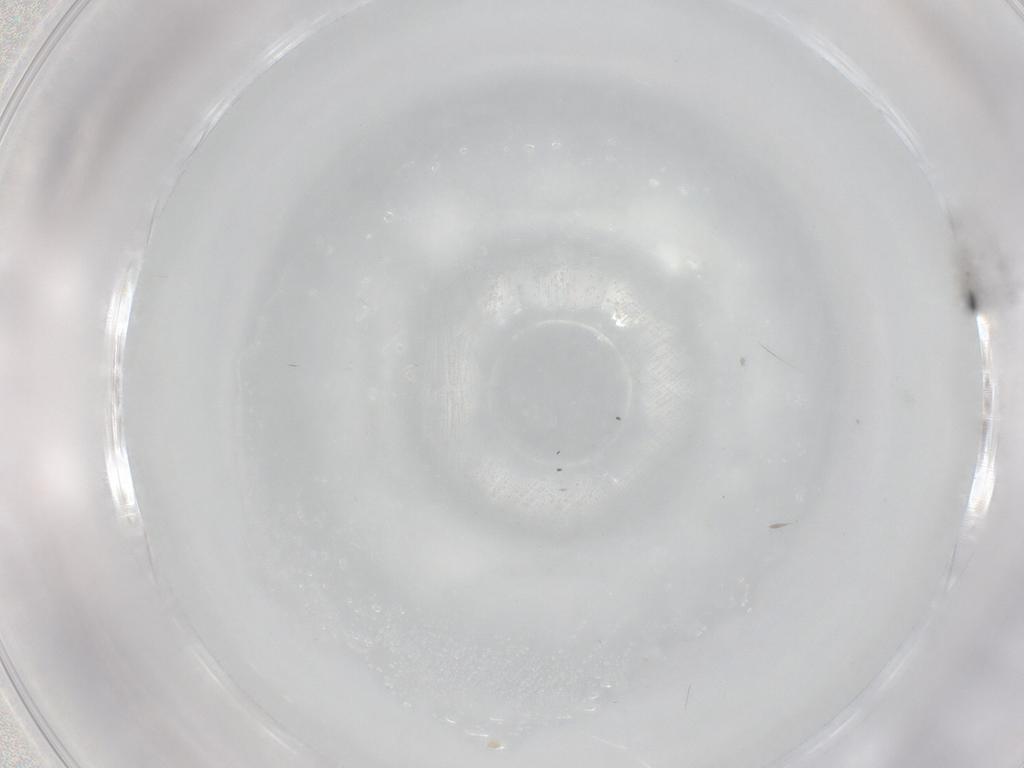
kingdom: Animalia
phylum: Arthropoda
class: Insecta
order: Diptera
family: Cecidomyiidae
